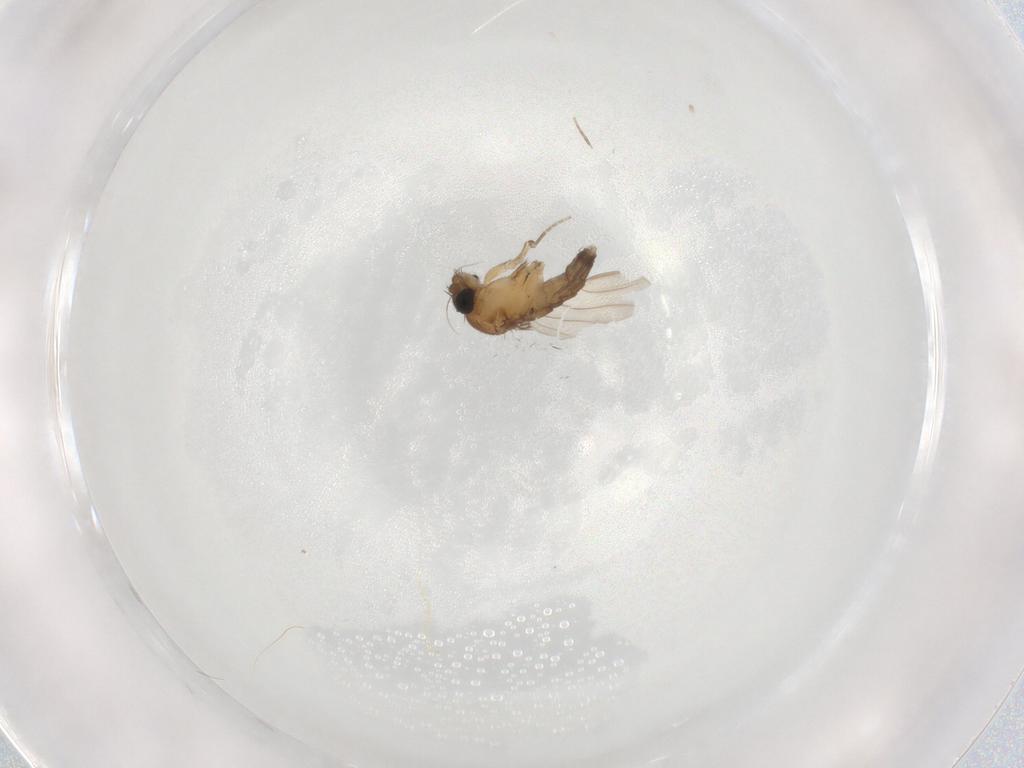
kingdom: Animalia
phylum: Arthropoda
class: Insecta
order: Diptera
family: Phoridae
